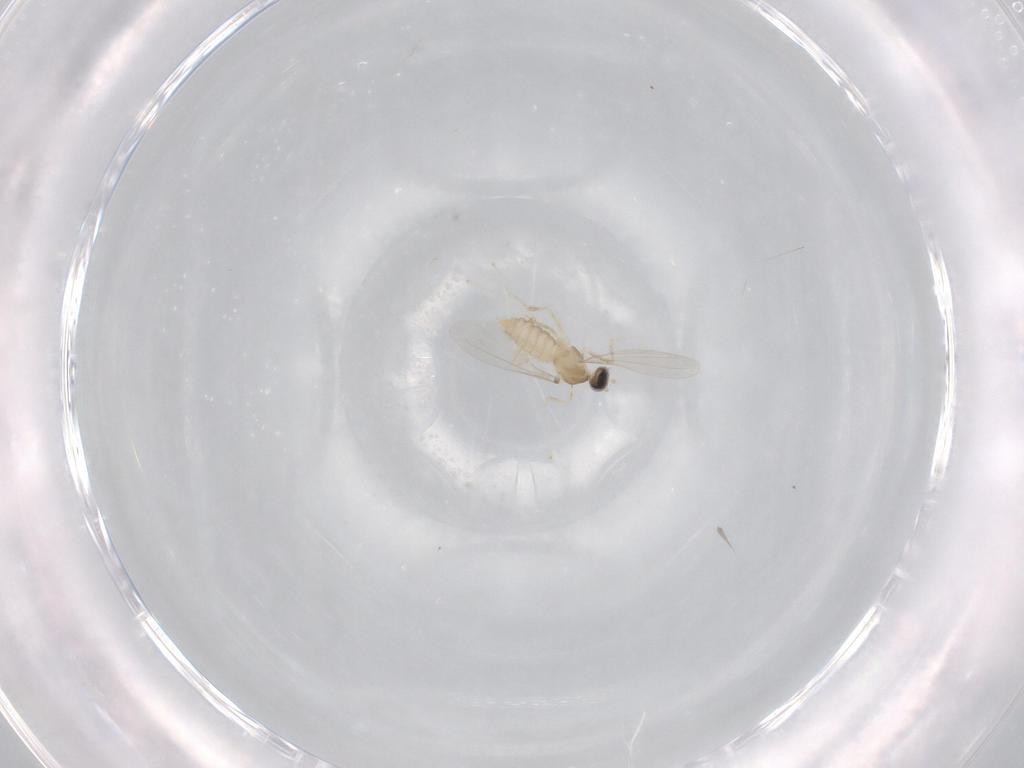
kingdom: Animalia
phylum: Arthropoda
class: Insecta
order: Diptera
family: Cecidomyiidae
